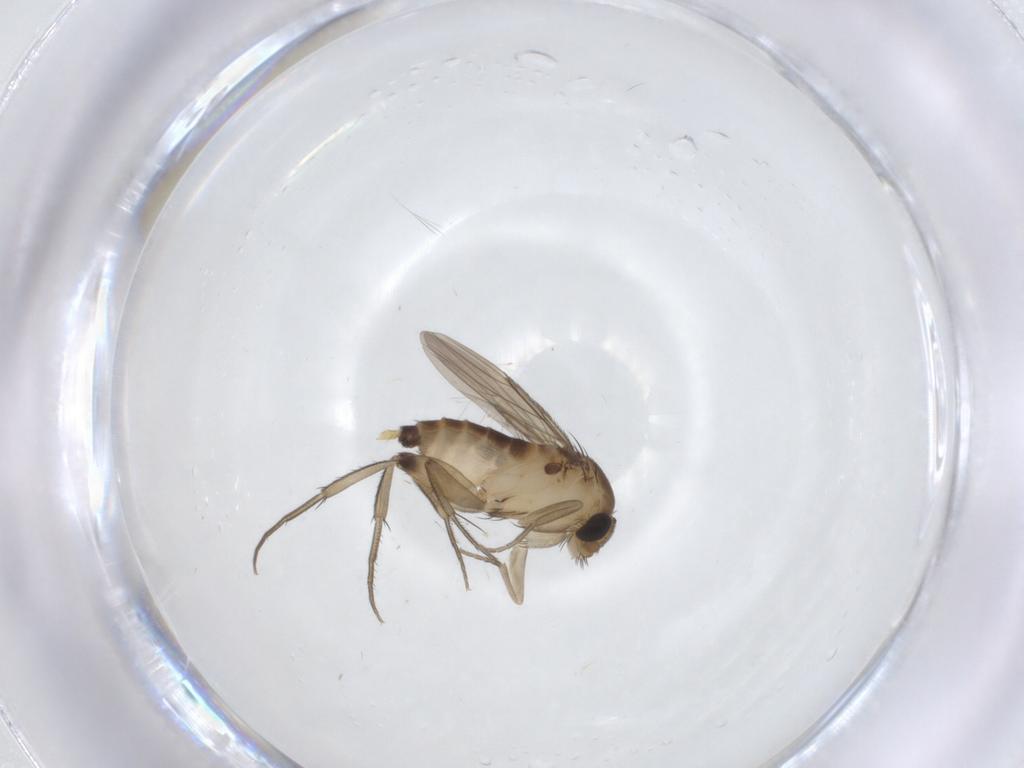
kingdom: Animalia
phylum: Arthropoda
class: Insecta
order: Diptera
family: Phoridae
